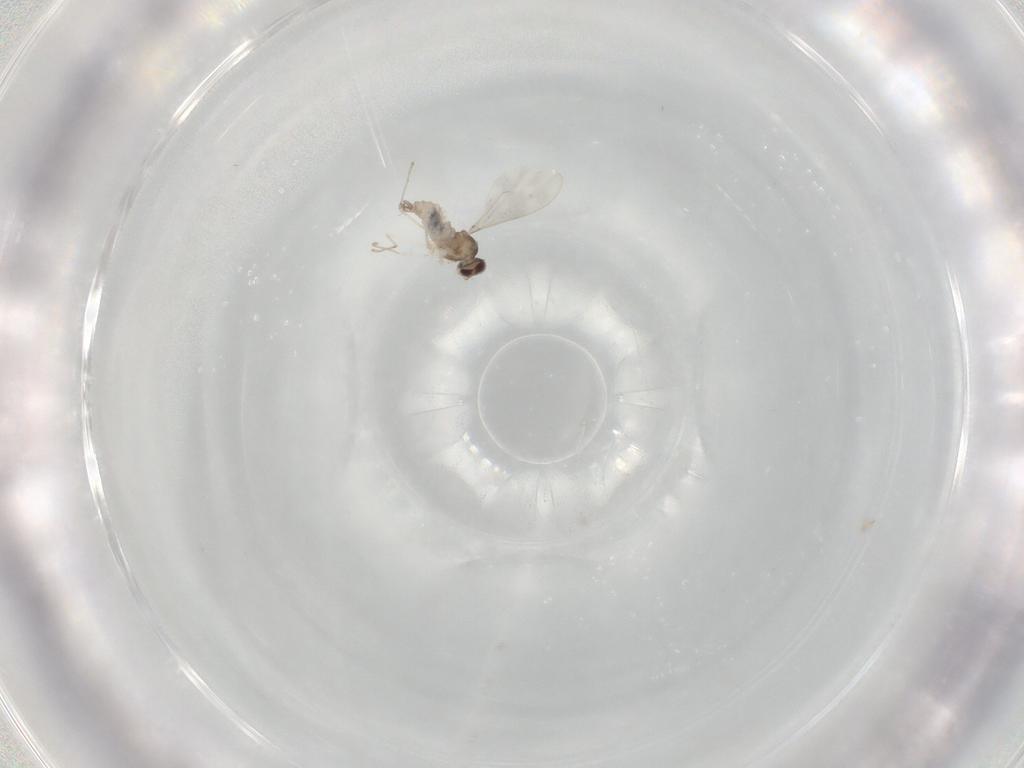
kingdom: Animalia
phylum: Arthropoda
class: Insecta
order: Diptera
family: Cecidomyiidae
